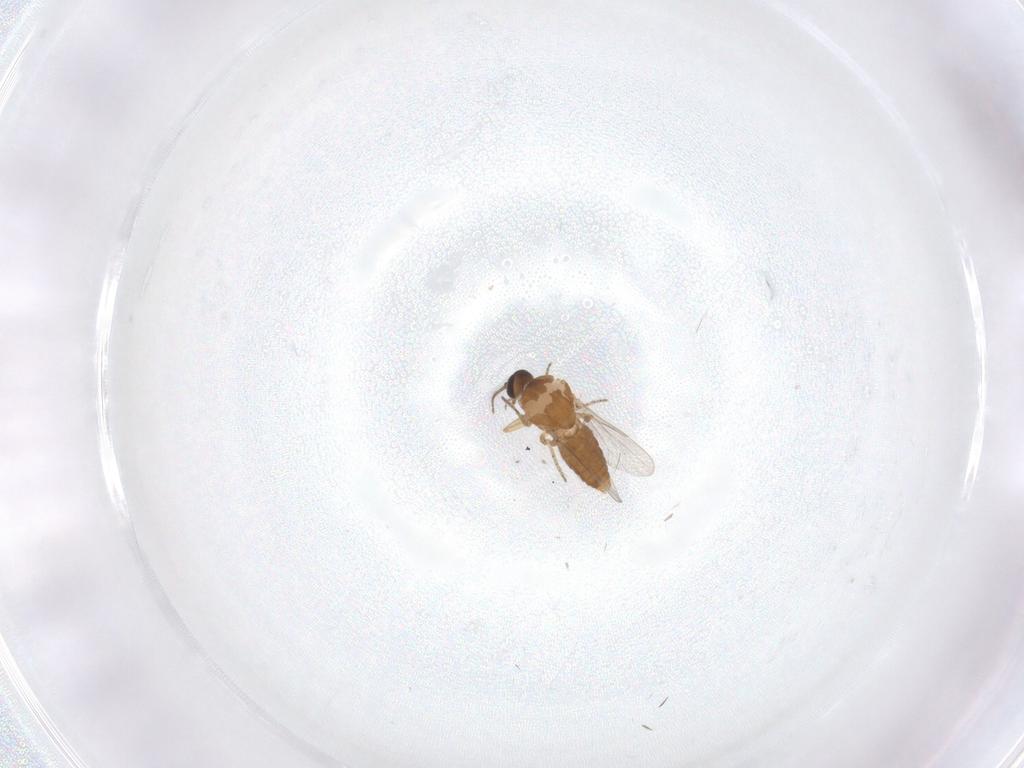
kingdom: Animalia
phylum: Arthropoda
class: Insecta
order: Diptera
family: Ceratopogonidae
